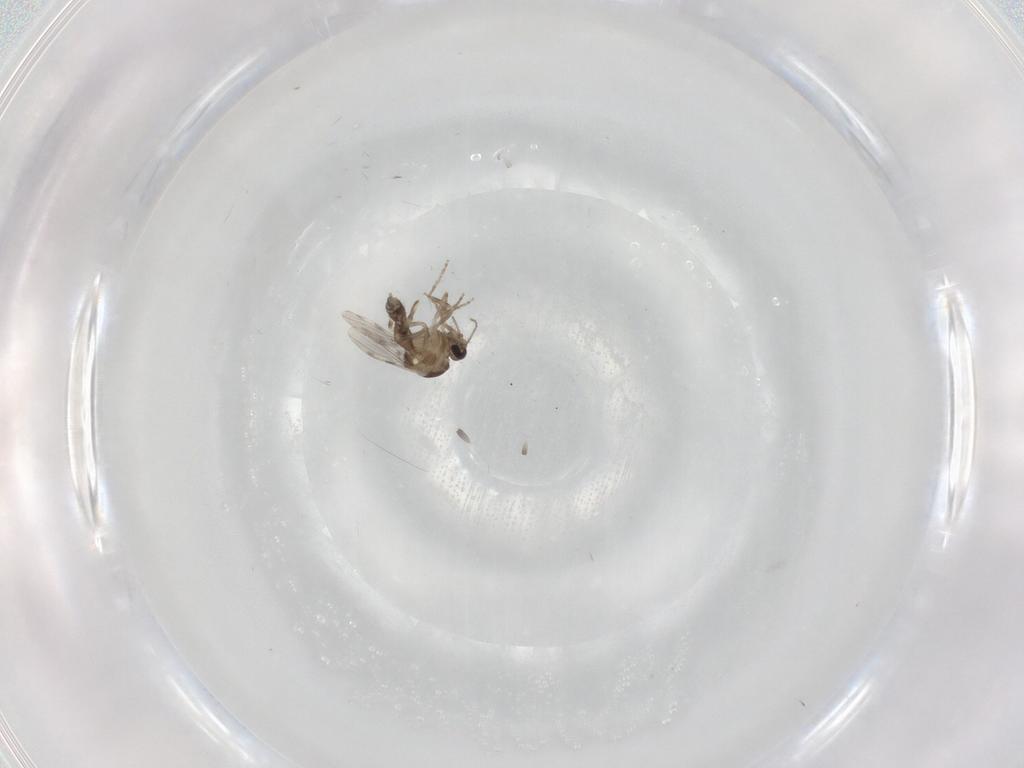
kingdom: Animalia
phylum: Arthropoda
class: Insecta
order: Diptera
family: Ceratopogonidae
